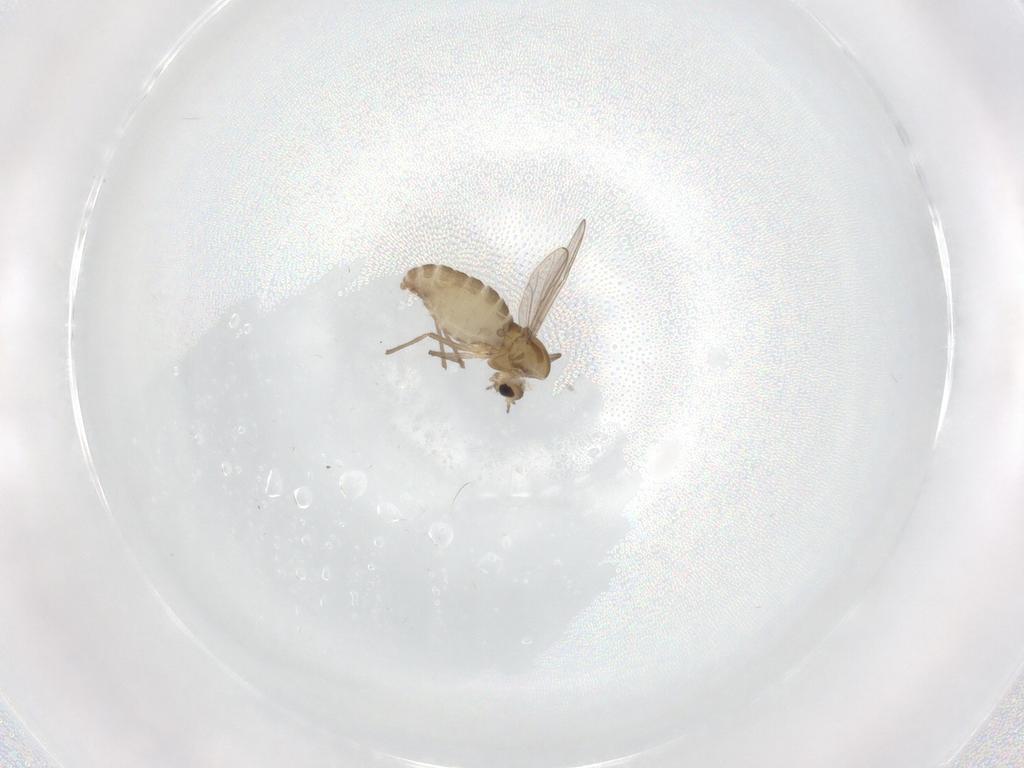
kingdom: Animalia
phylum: Arthropoda
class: Insecta
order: Diptera
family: Chironomidae
